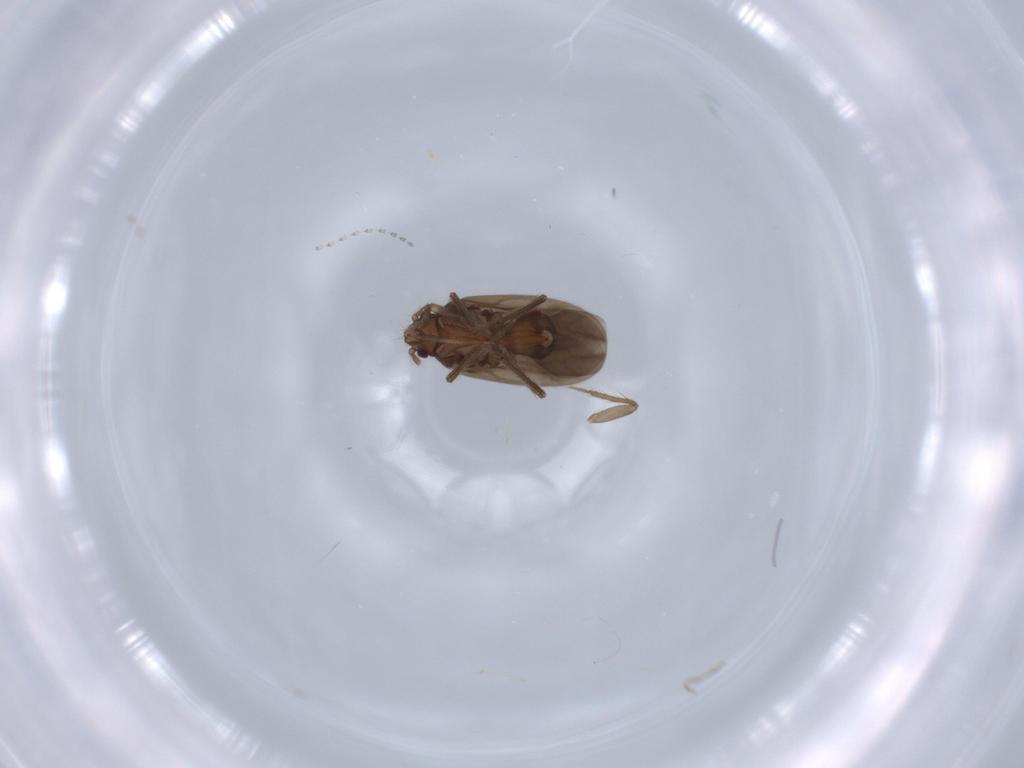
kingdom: Animalia
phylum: Arthropoda
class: Insecta
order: Hemiptera
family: Ceratocombidae
